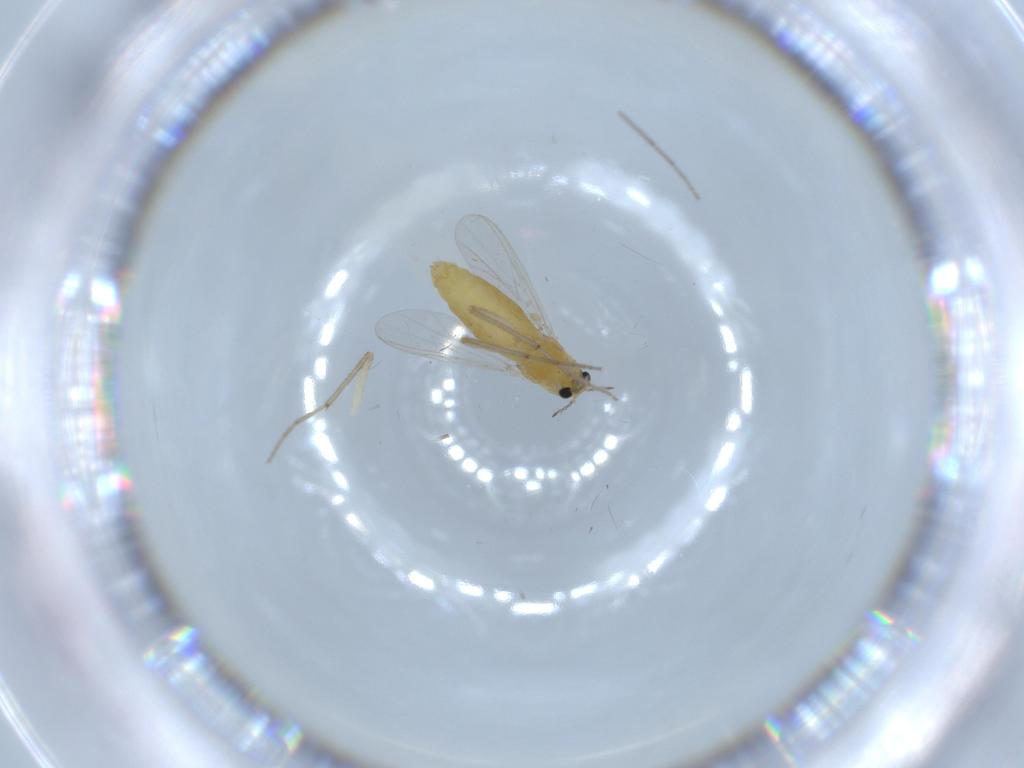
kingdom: Animalia
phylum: Arthropoda
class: Insecta
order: Diptera
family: Chironomidae
